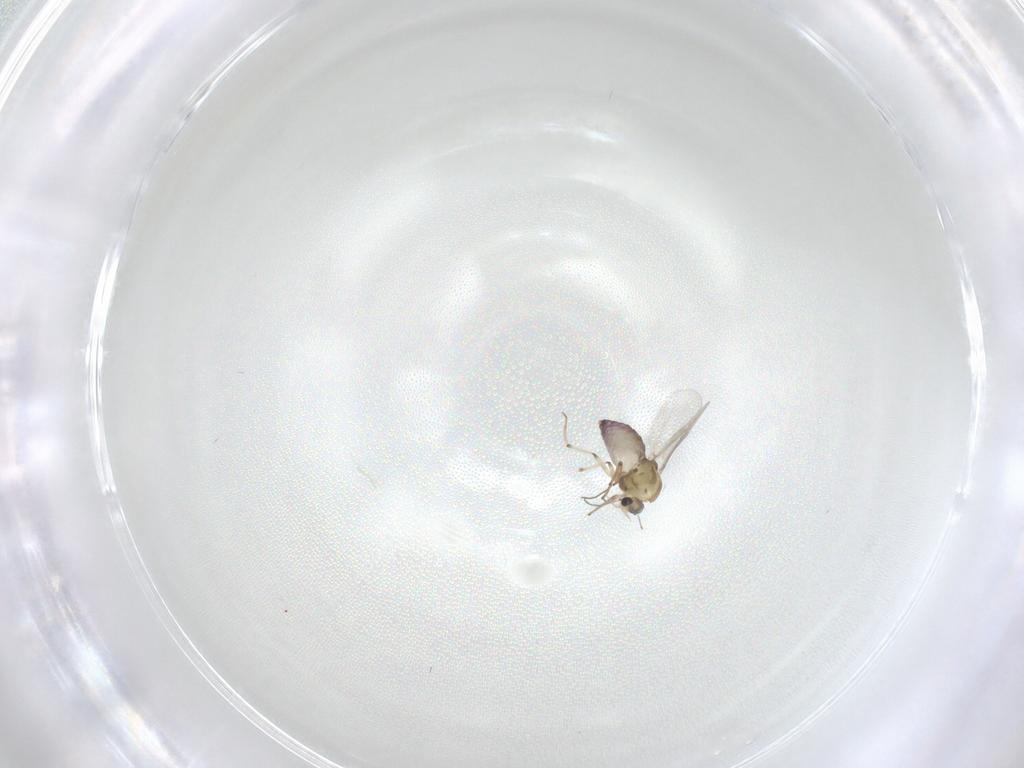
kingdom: Animalia
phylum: Arthropoda
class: Insecta
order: Diptera
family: Chironomidae
